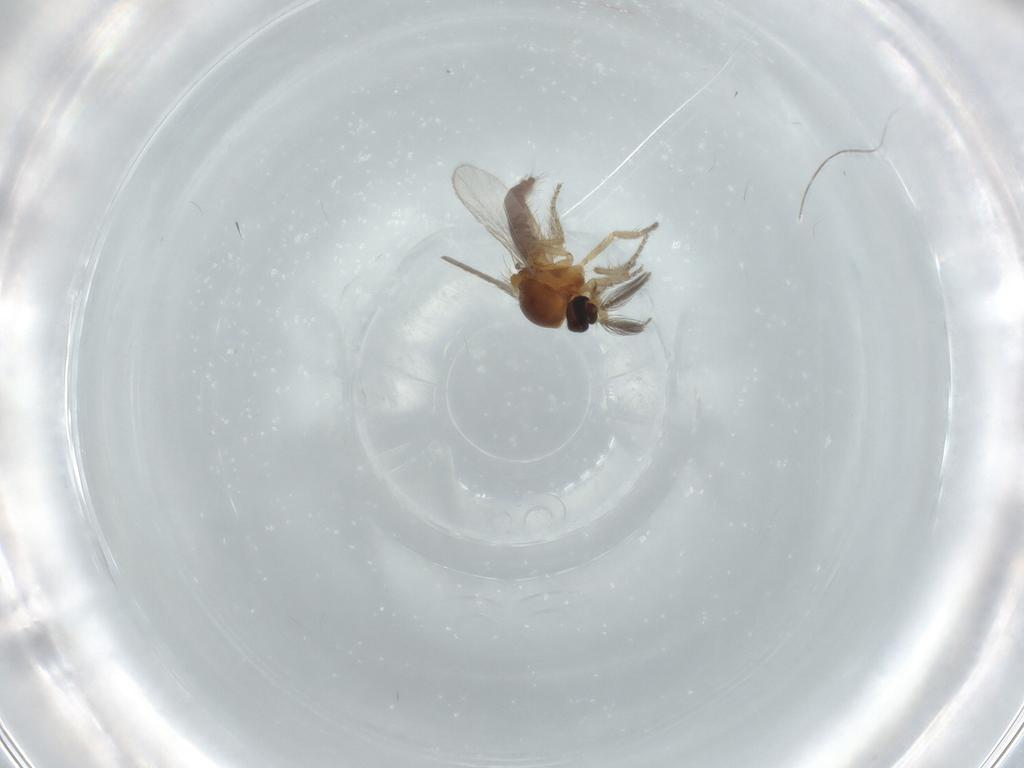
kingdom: Animalia
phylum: Arthropoda
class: Insecta
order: Diptera
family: Ceratopogonidae
